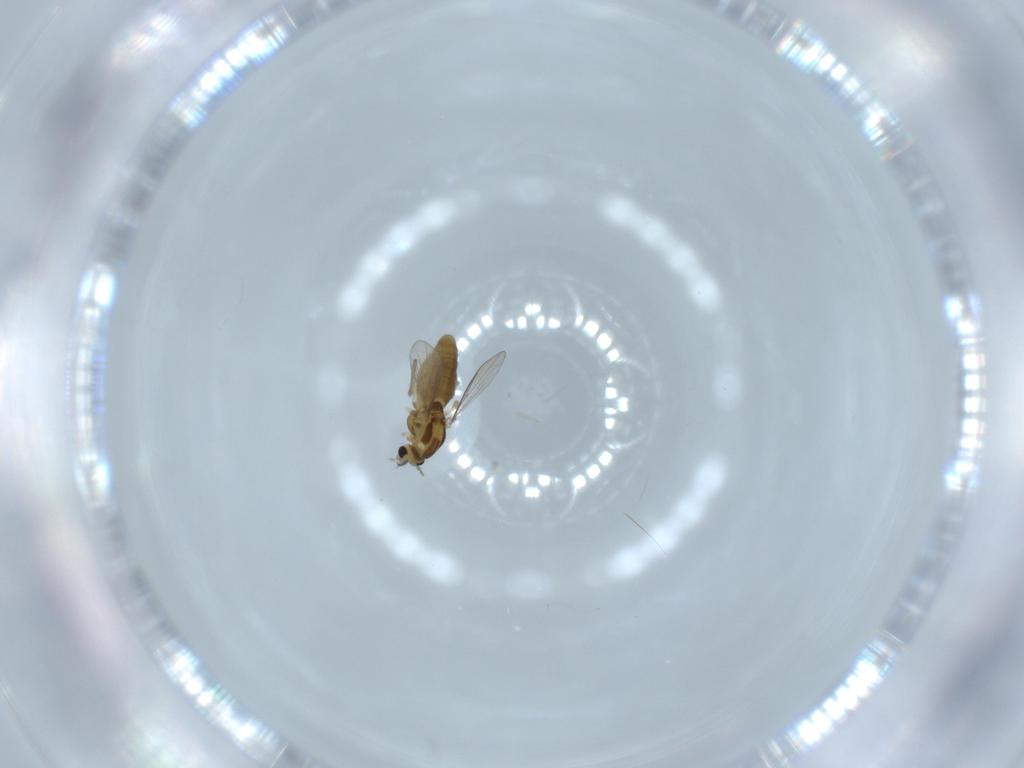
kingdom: Animalia
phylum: Arthropoda
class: Insecta
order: Diptera
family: Chironomidae
